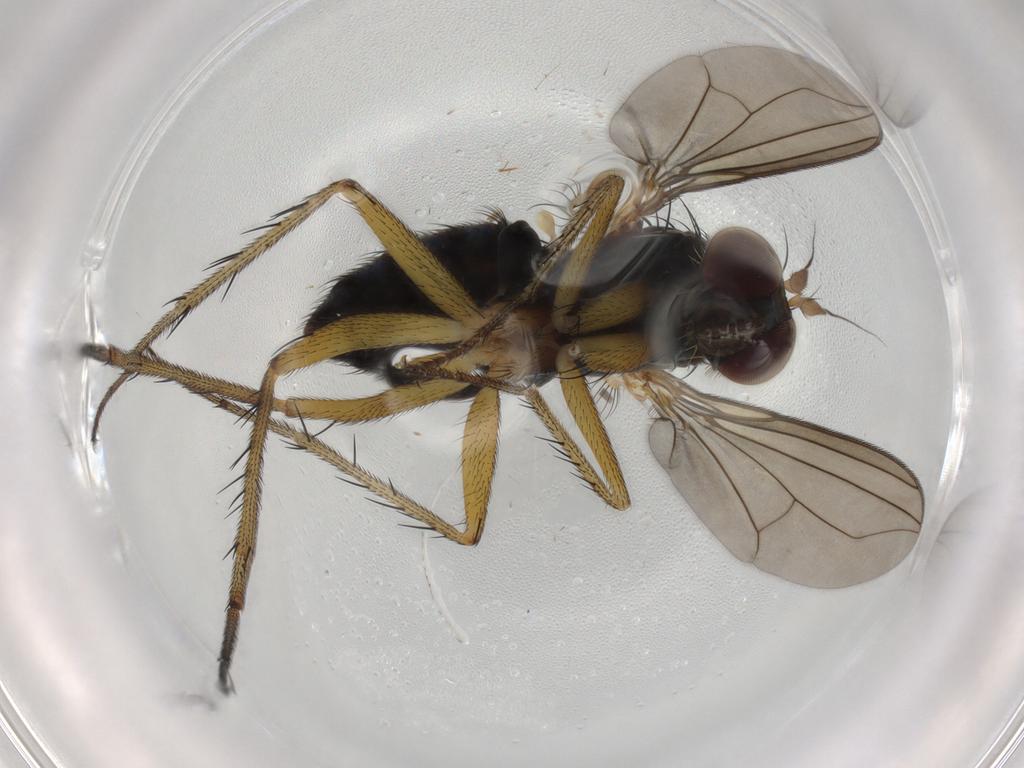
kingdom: Animalia
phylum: Arthropoda
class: Insecta
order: Diptera
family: Dolichopodidae
